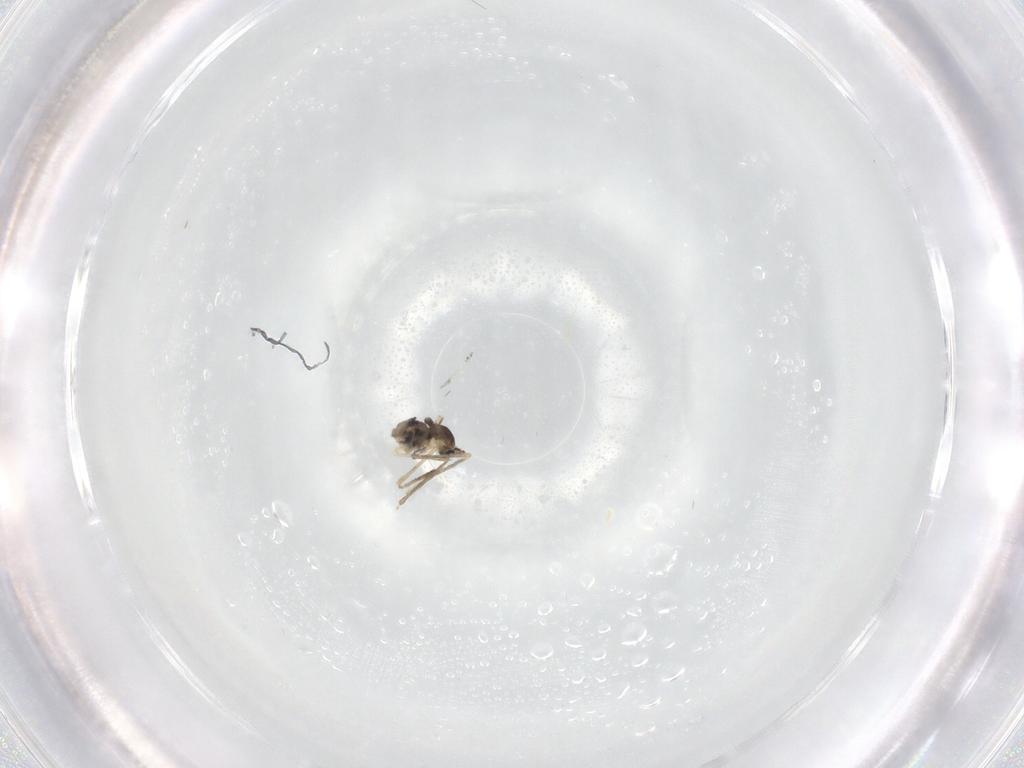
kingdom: Animalia
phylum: Arthropoda
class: Insecta
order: Diptera
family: Cecidomyiidae
